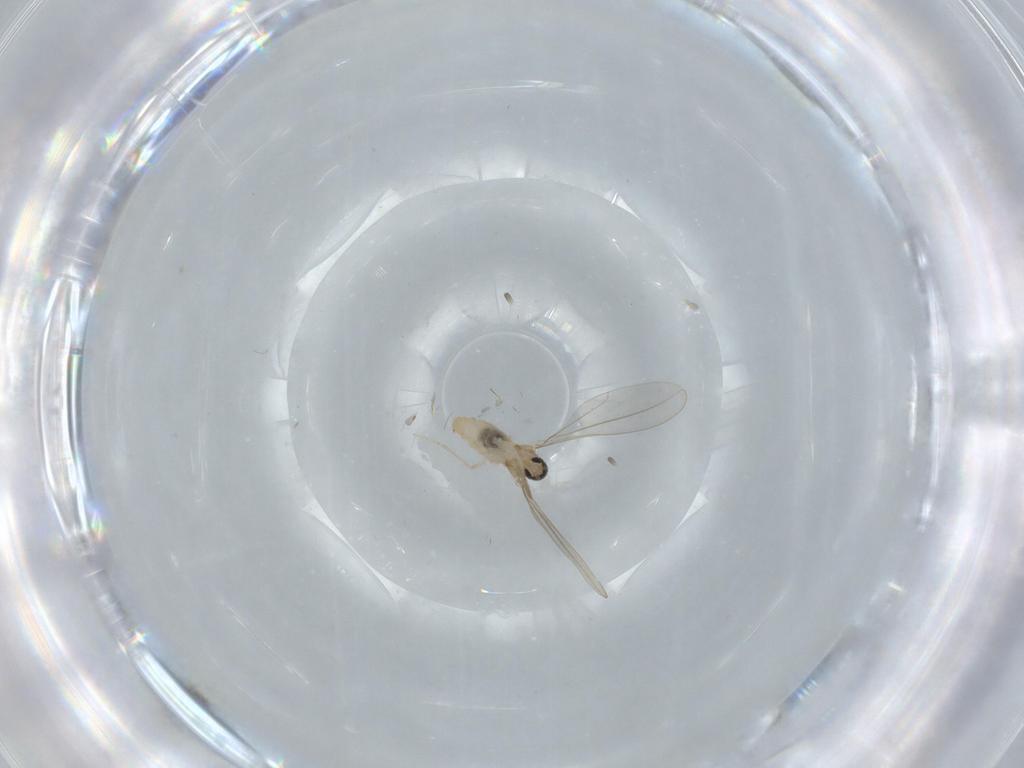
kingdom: Animalia
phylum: Arthropoda
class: Insecta
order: Diptera
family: Cecidomyiidae
